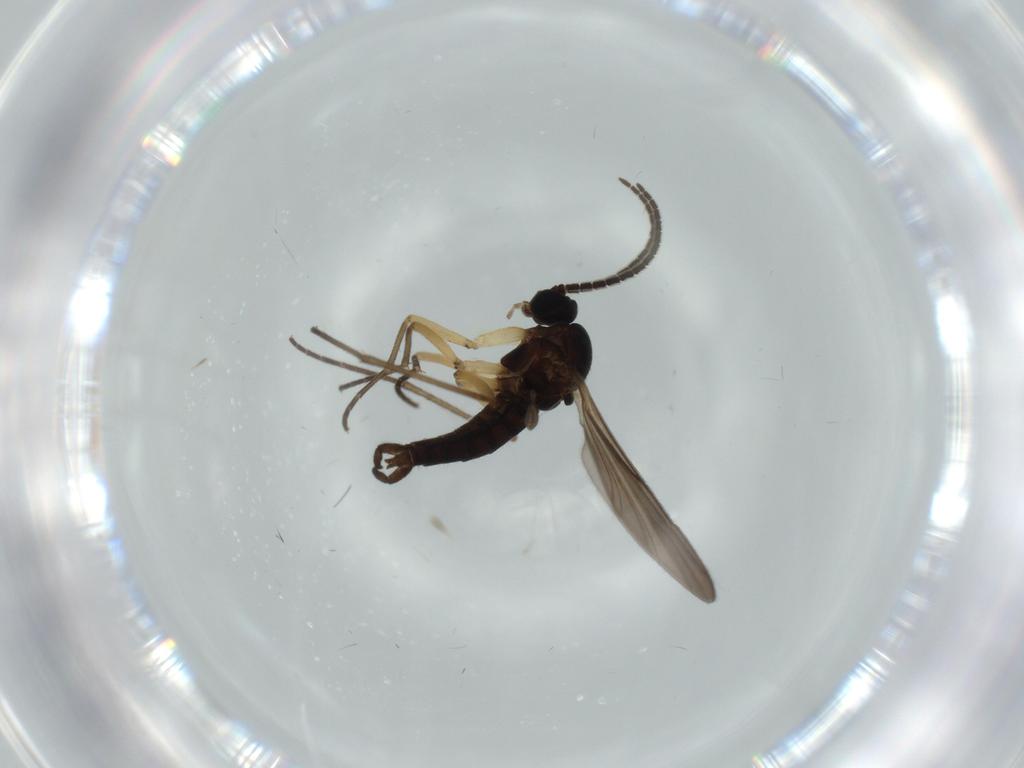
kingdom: Animalia
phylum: Arthropoda
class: Insecta
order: Diptera
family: Sciaridae
